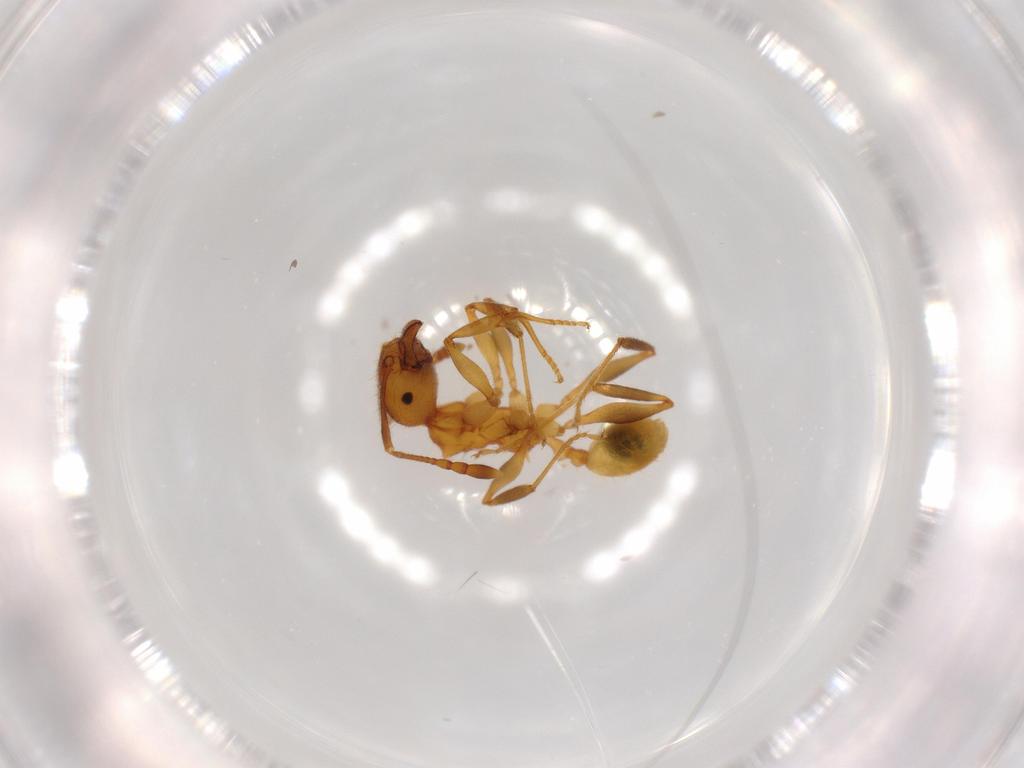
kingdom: Animalia
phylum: Arthropoda
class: Insecta
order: Hymenoptera
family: Formicidae
